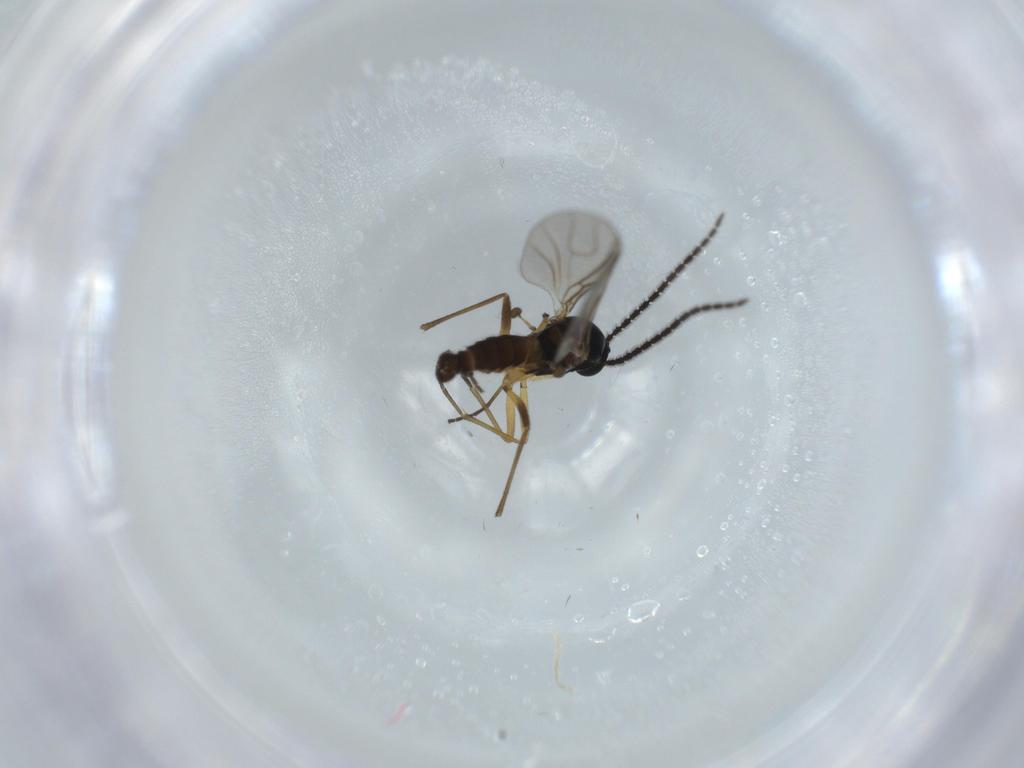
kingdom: Animalia
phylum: Arthropoda
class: Insecta
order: Diptera
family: Sciaridae
